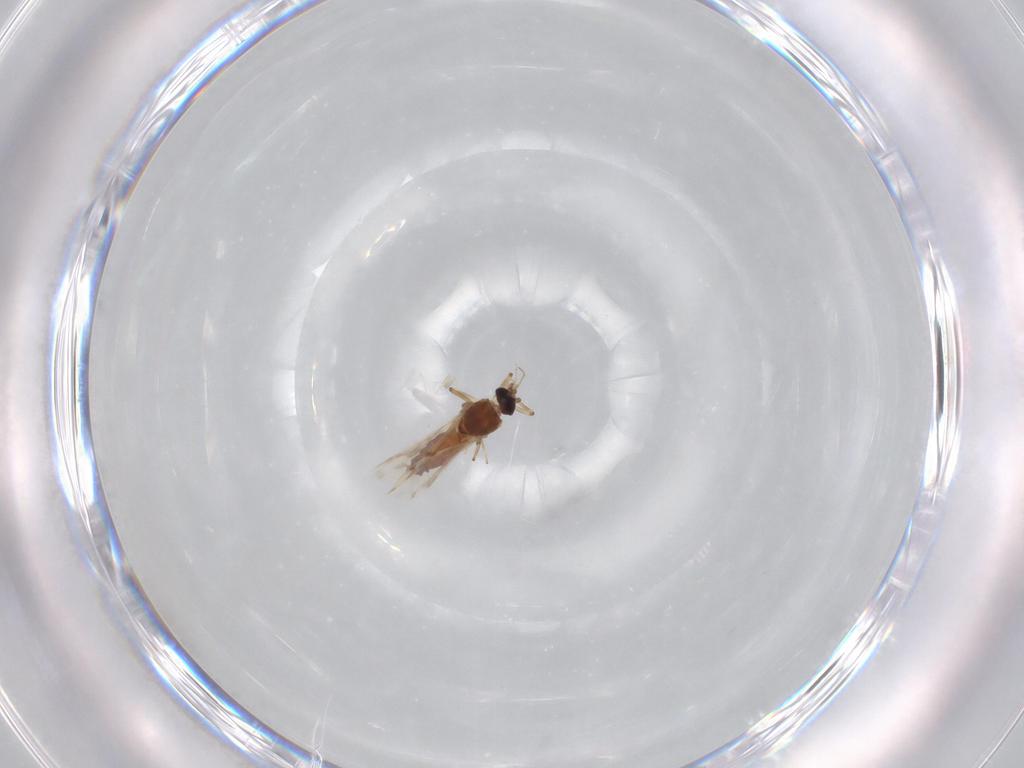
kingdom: Animalia
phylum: Arthropoda
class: Insecta
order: Diptera
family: Ceratopogonidae
